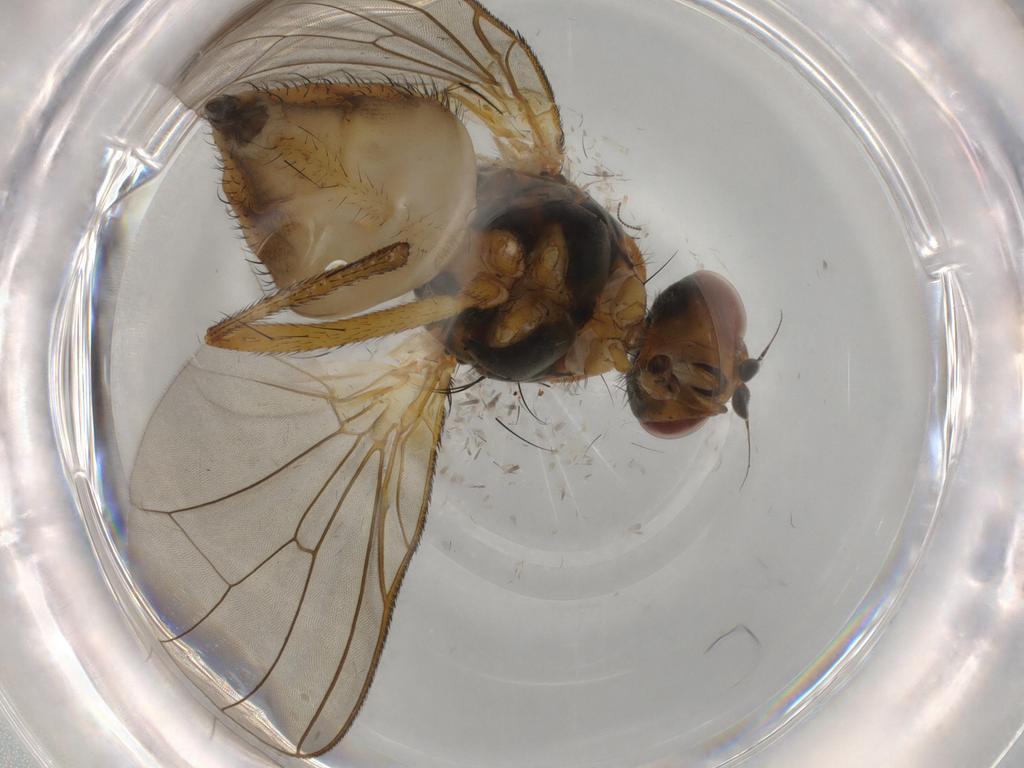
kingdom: Animalia
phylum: Arthropoda
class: Insecta
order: Diptera
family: Anthomyiidae
